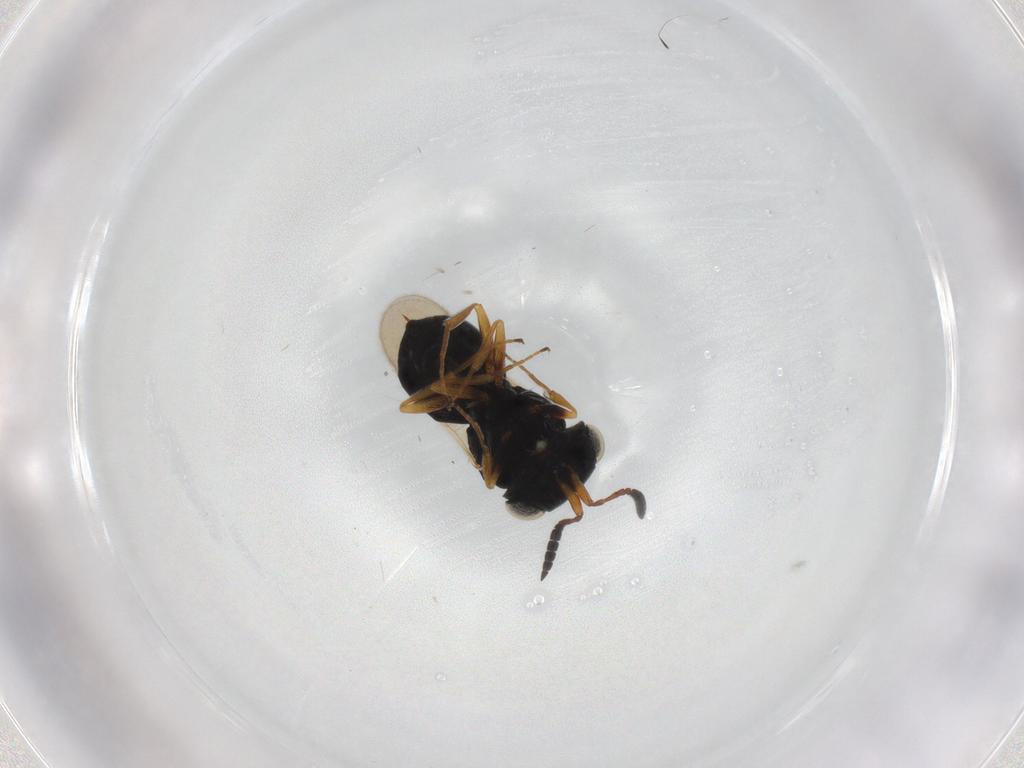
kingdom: Animalia
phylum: Arthropoda
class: Insecta
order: Hymenoptera
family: Scelionidae
